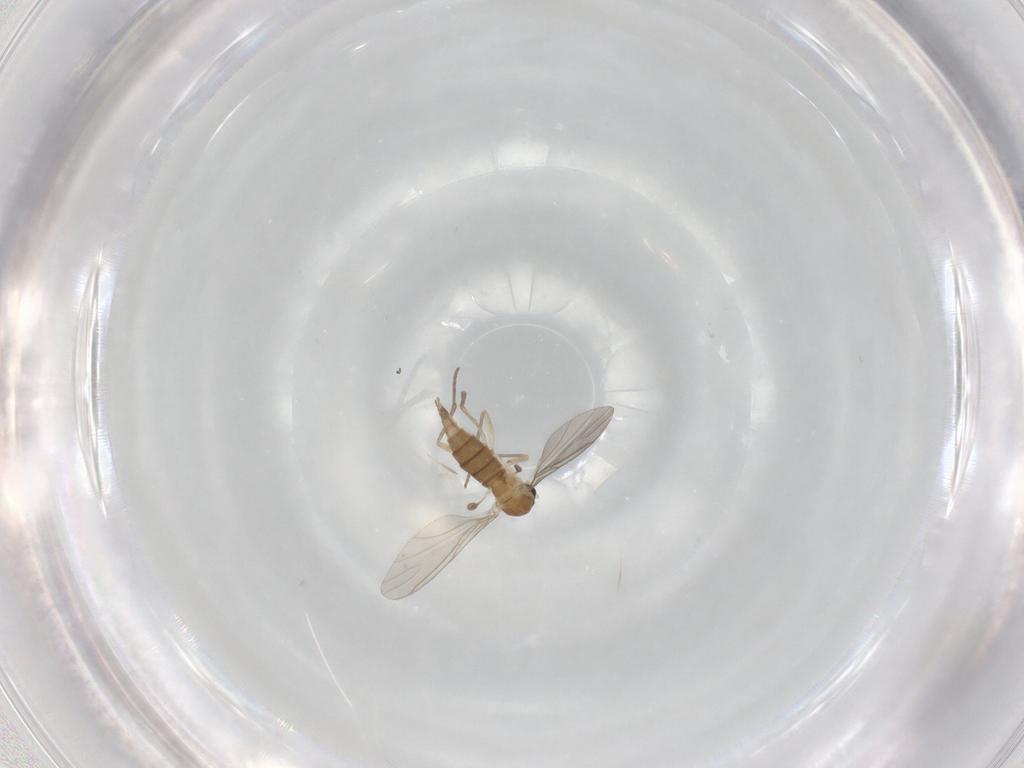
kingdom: Animalia
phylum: Arthropoda
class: Insecta
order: Diptera
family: Sciaridae
